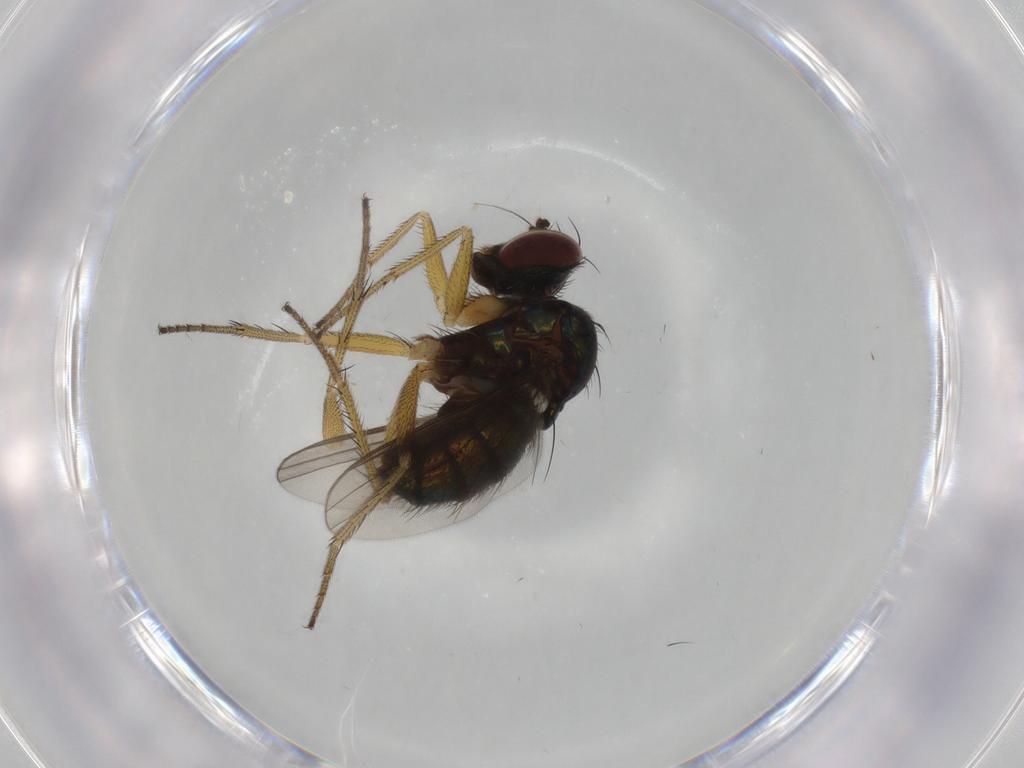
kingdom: Animalia
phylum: Arthropoda
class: Insecta
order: Diptera
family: Dolichopodidae
